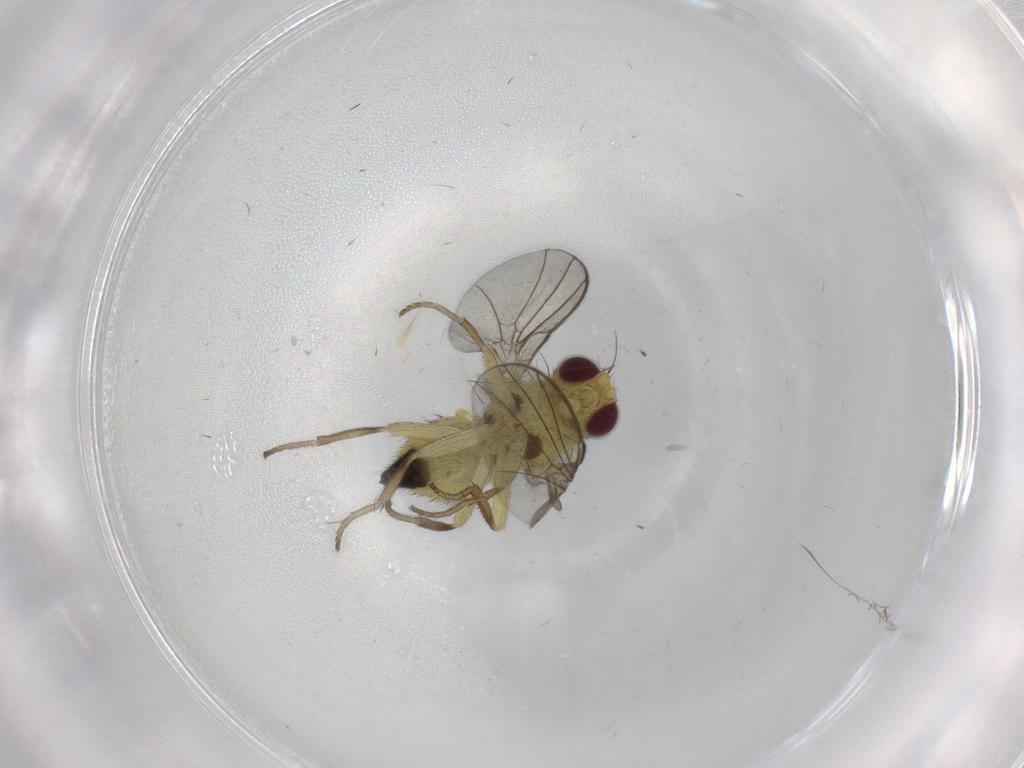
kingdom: Animalia
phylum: Arthropoda
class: Insecta
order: Diptera
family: Agromyzidae
